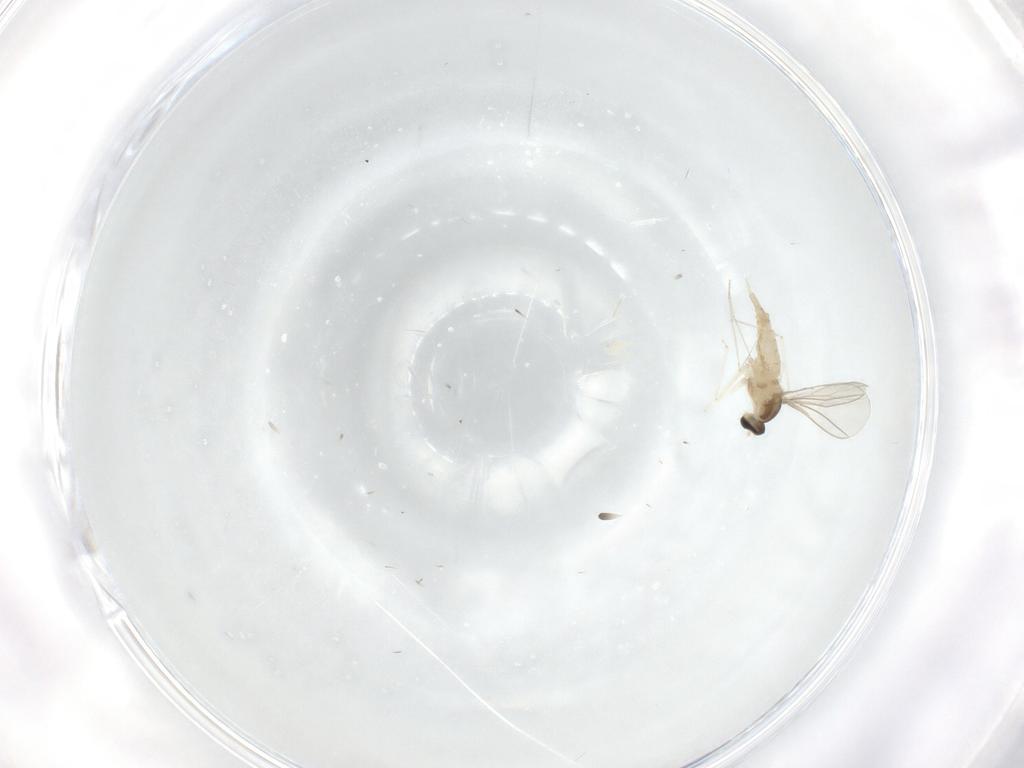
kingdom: Animalia
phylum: Arthropoda
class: Insecta
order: Diptera
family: Cecidomyiidae
